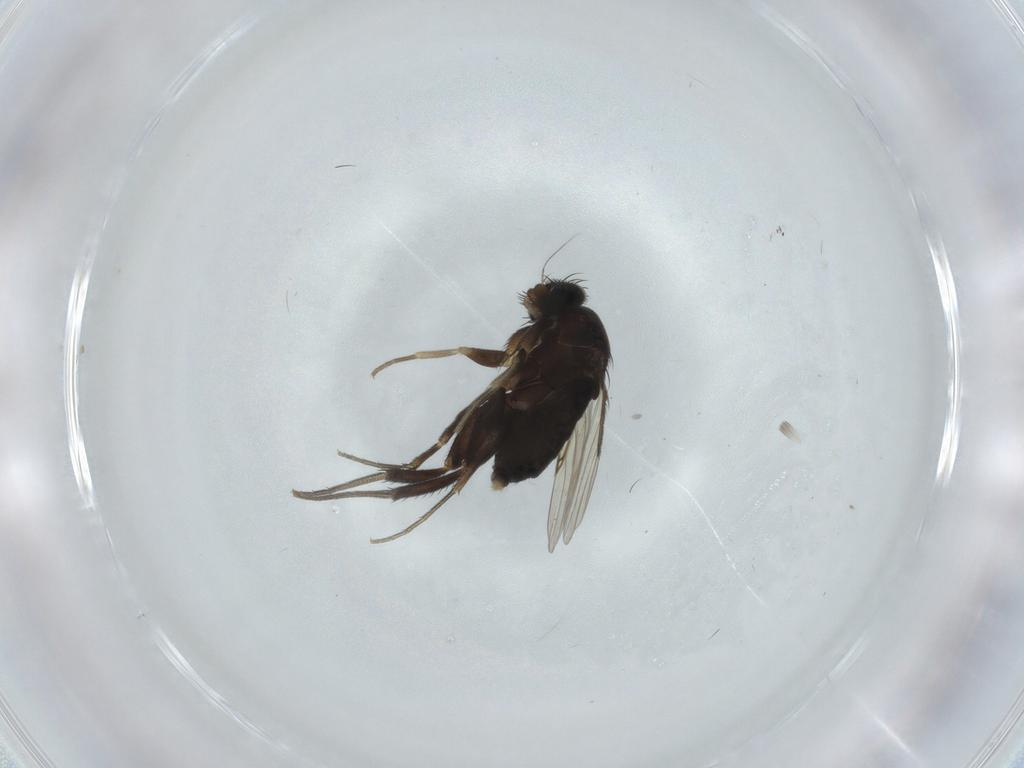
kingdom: Animalia
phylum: Arthropoda
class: Insecta
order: Diptera
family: Phoridae
